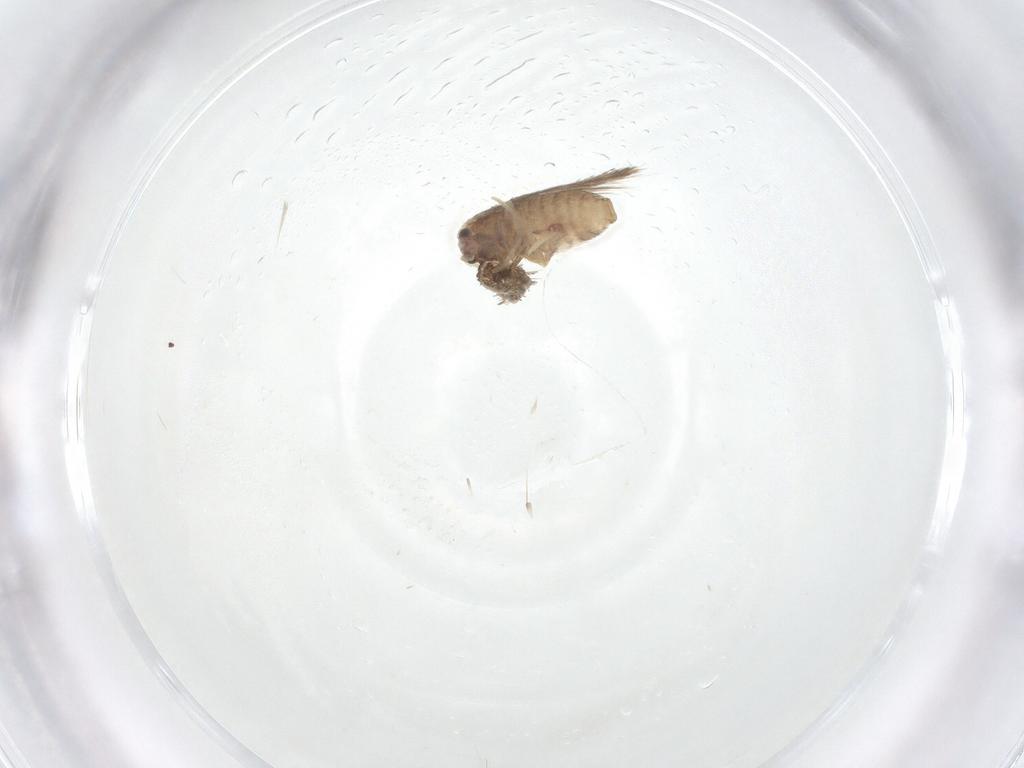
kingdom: Animalia
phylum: Arthropoda
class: Insecta
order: Lepidoptera
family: Nepticulidae
